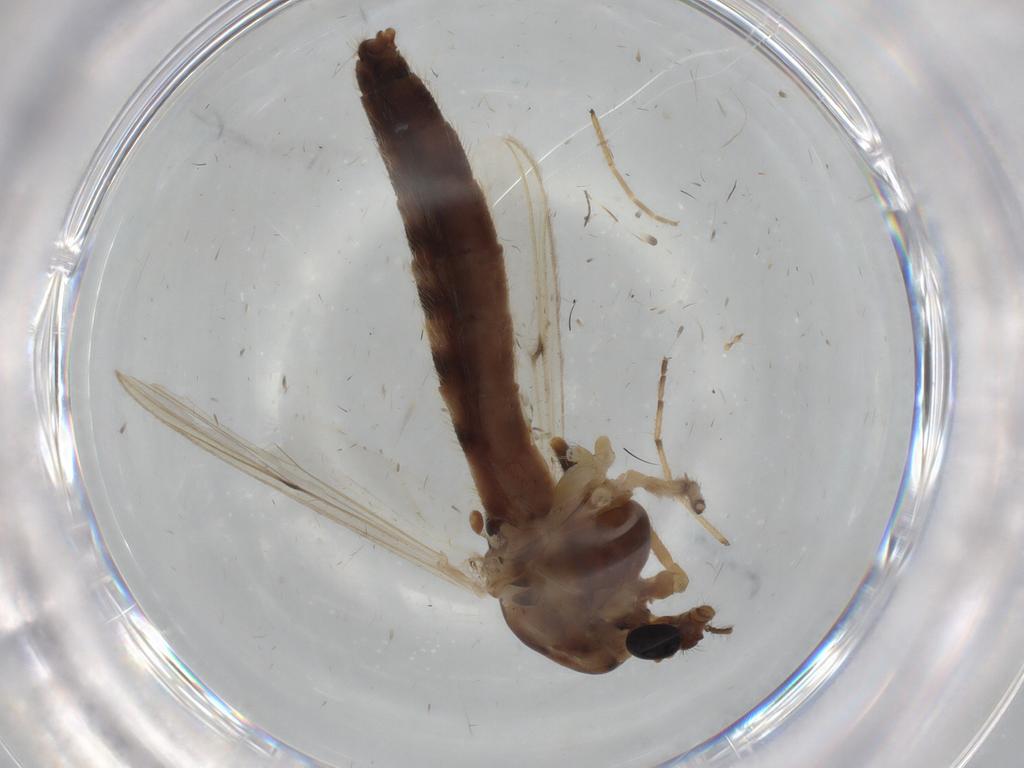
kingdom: Animalia
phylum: Arthropoda
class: Insecta
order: Diptera
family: Chironomidae
